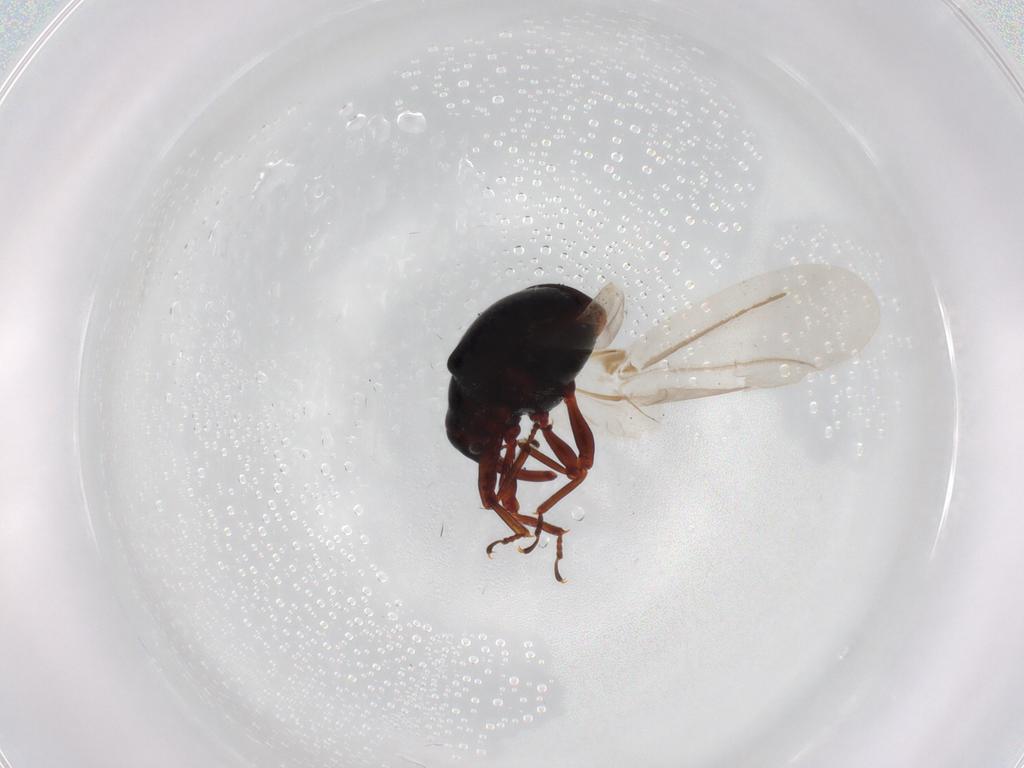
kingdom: Animalia
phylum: Arthropoda
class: Insecta
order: Coleoptera
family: Curculionidae
